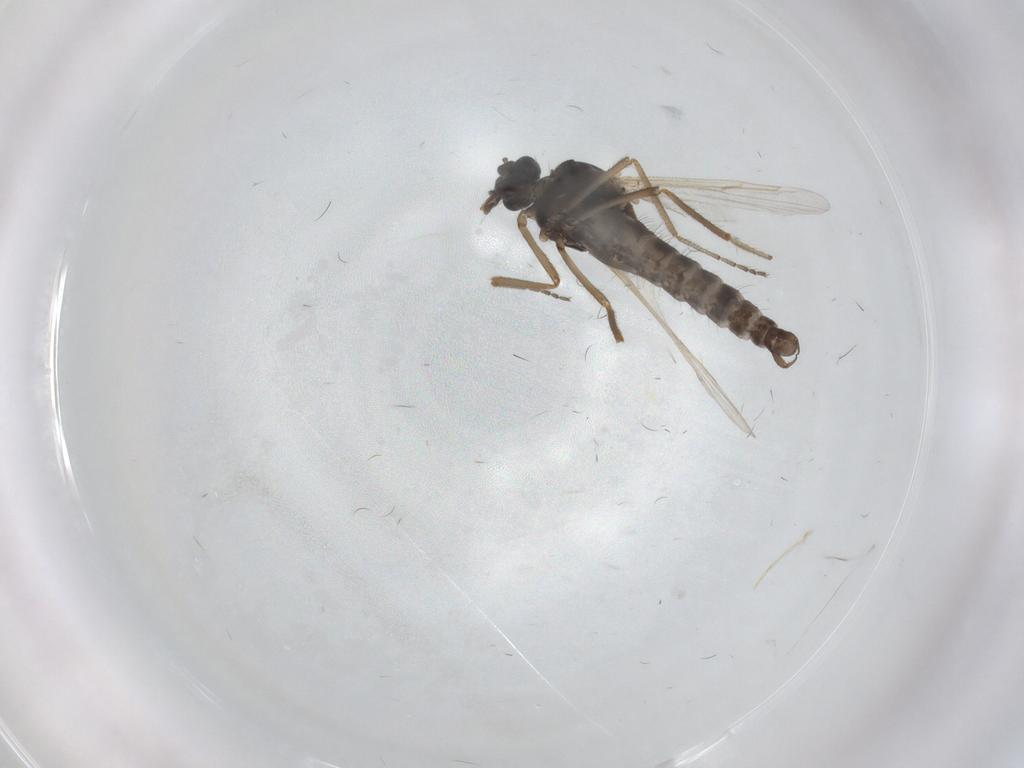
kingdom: Animalia
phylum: Arthropoda
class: Insecta
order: Diptera
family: Ceratopogonidae
